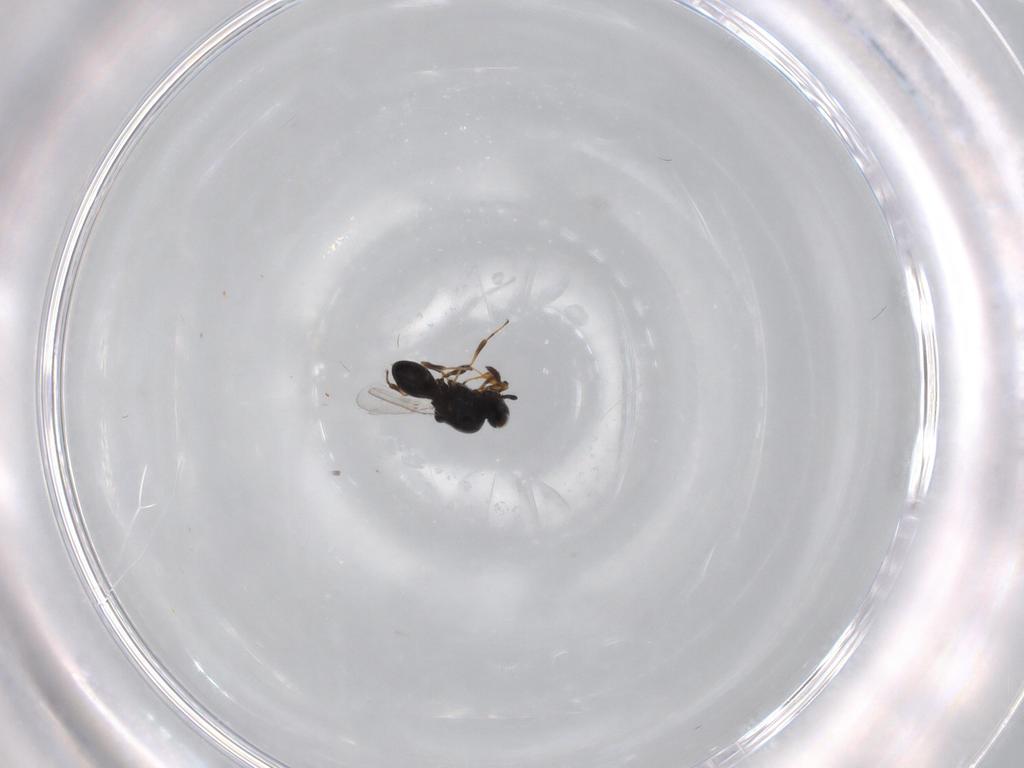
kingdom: Animalia
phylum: Arthropoda
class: Insecta
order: Hymenoptera
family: Platygastridae
